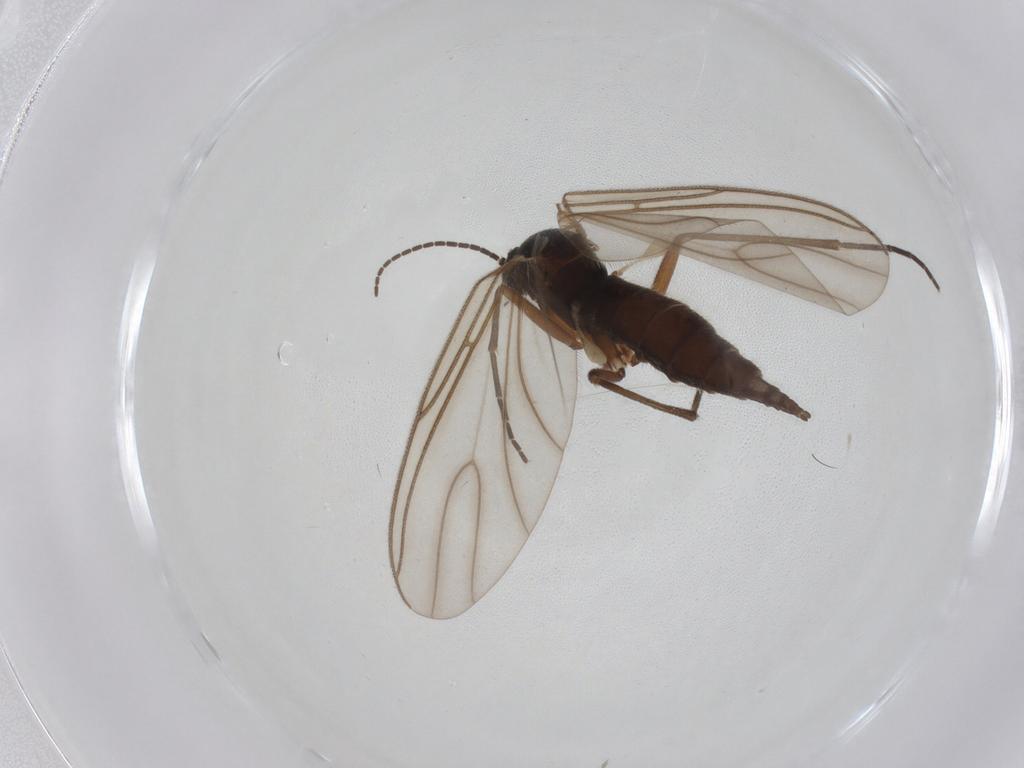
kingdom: Animalia
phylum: Arthropoda
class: Insecta
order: Diptera
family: Sciaridae
